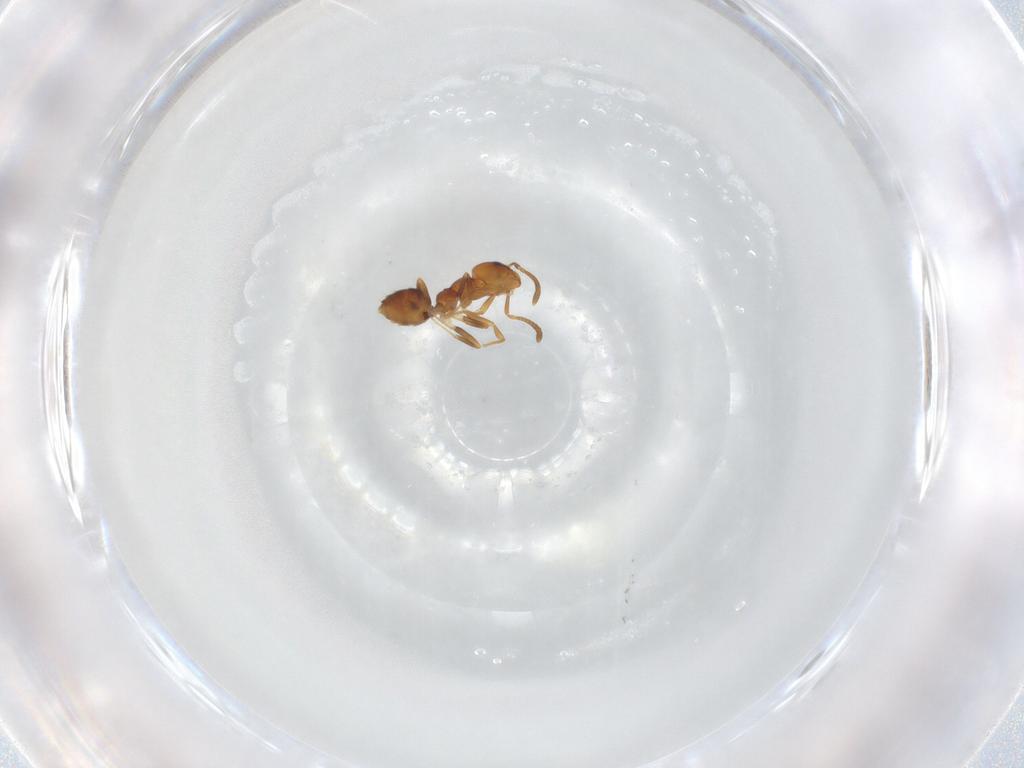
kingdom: Animalia
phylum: Arthropoda
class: Insecta
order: Hymenoptera
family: Formicidae
